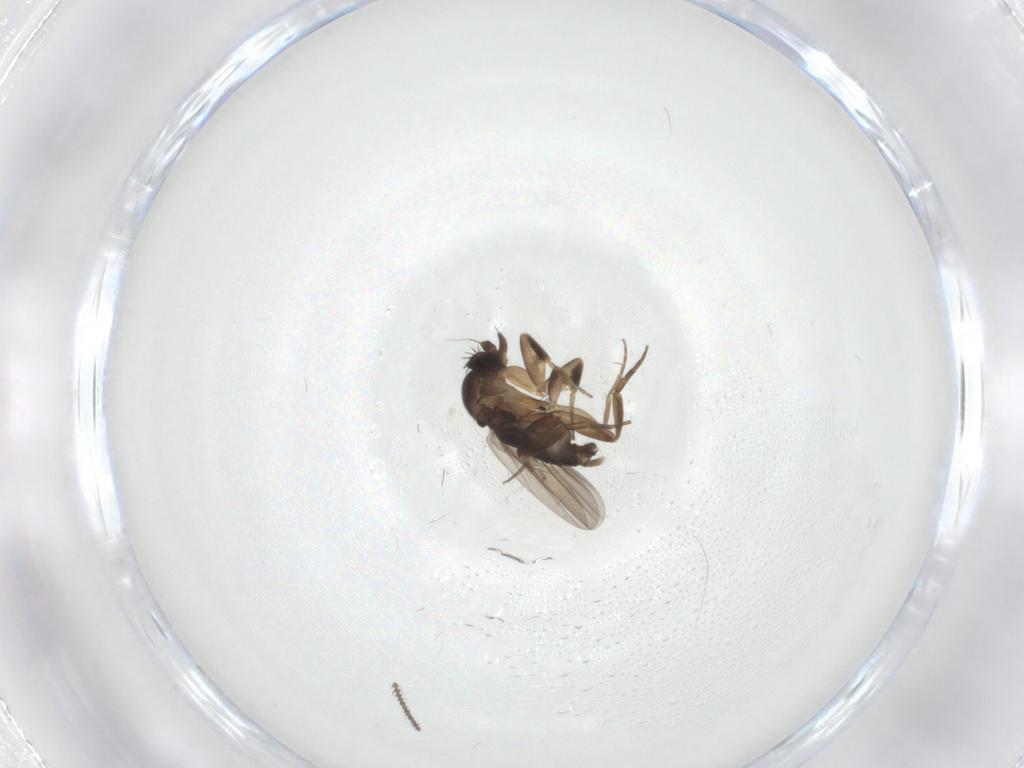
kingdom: Animalia
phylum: Arthropoda
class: Insecta
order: Diptera
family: Phoridae
